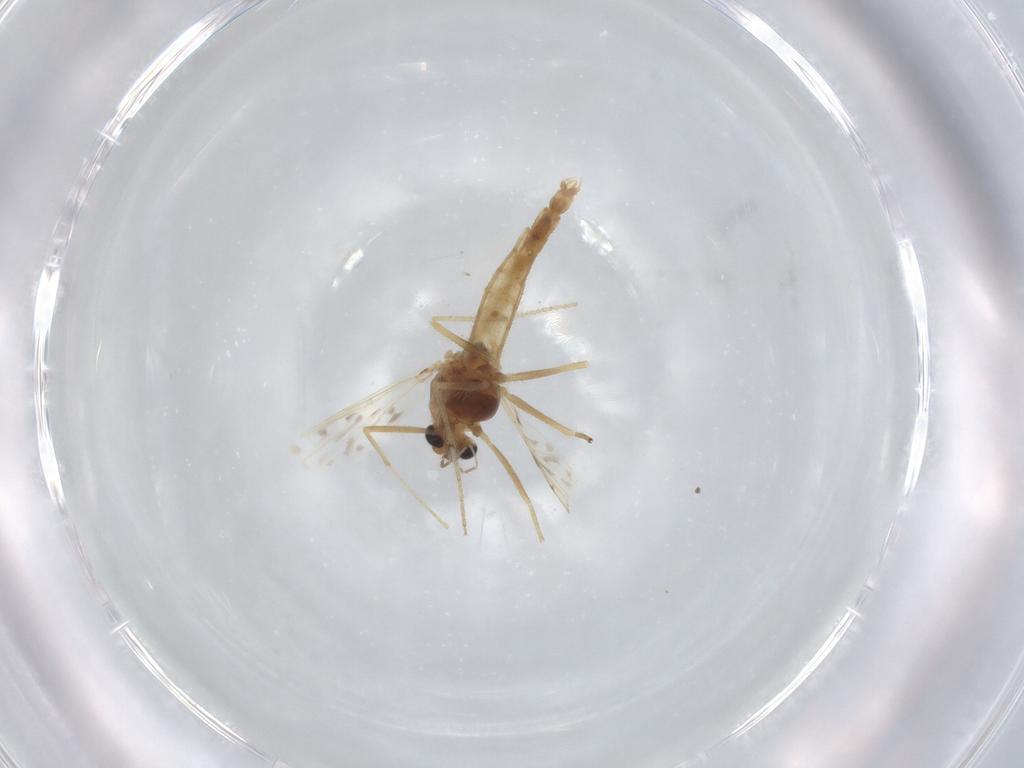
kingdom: Animalia
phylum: Arthropoda
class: Insecta
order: Diptera
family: Chironomidae
